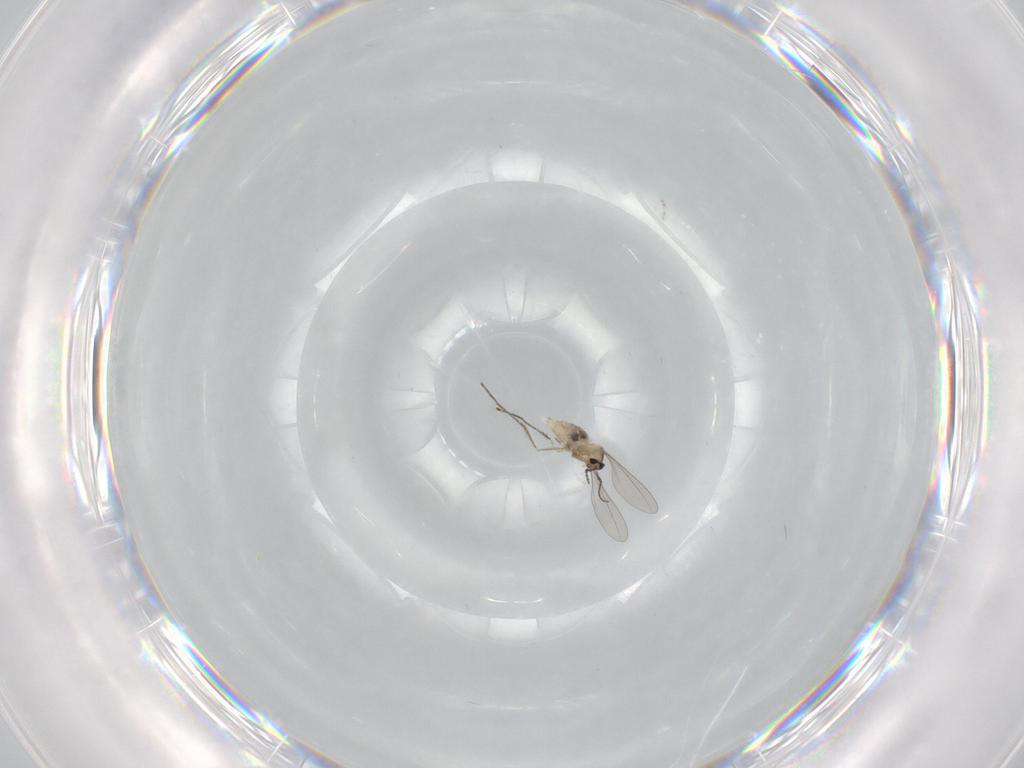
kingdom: Animalia
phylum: Arthropoda
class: Insecta
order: Diptera
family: Cecidomyiidae
